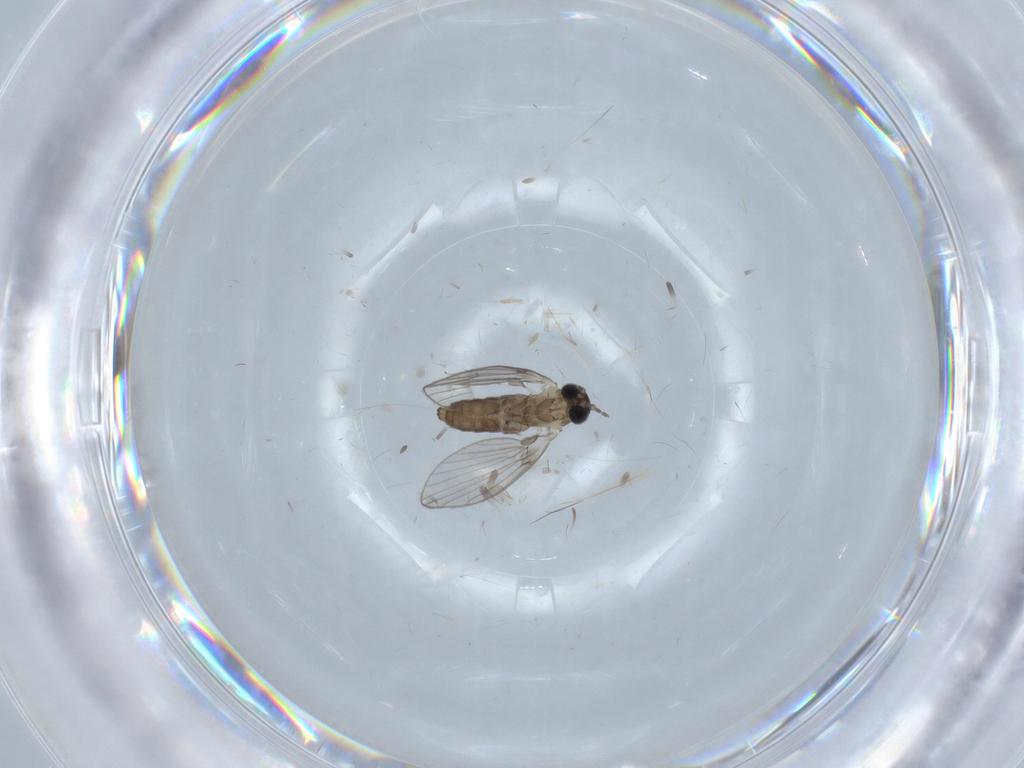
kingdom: Animalia
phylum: Arthropoda
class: Insecta
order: Diptera
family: Psychodidae
